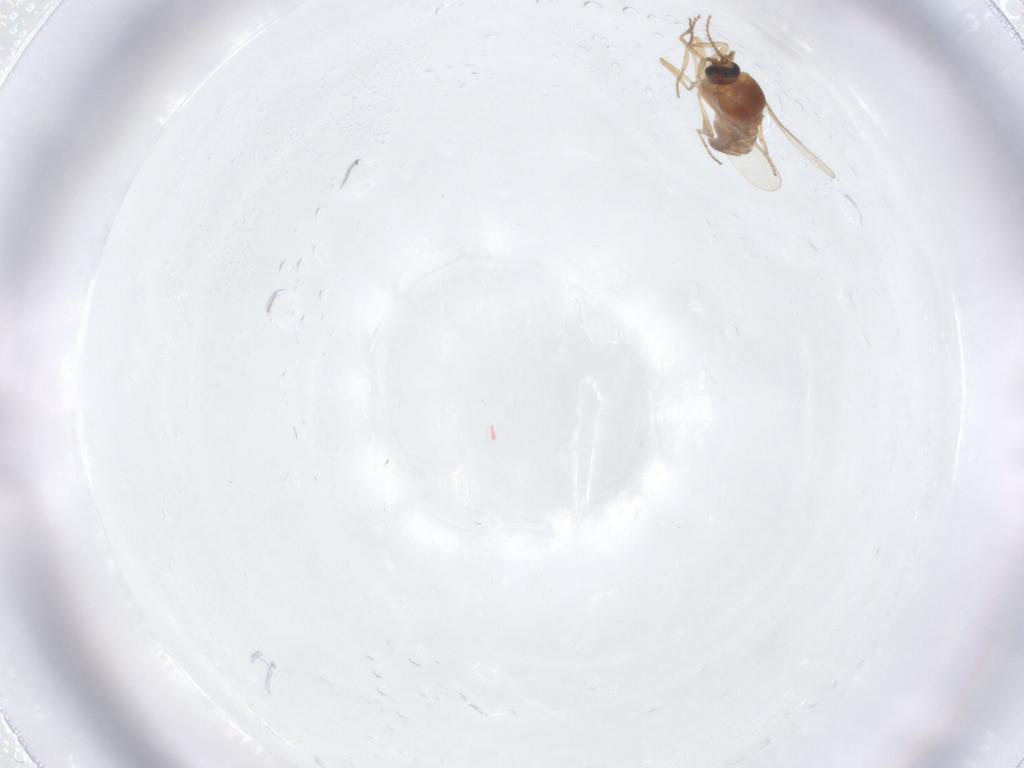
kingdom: Animalia
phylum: Arthropoda
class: Insecta
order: Diptera
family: Ceratopogonidae
